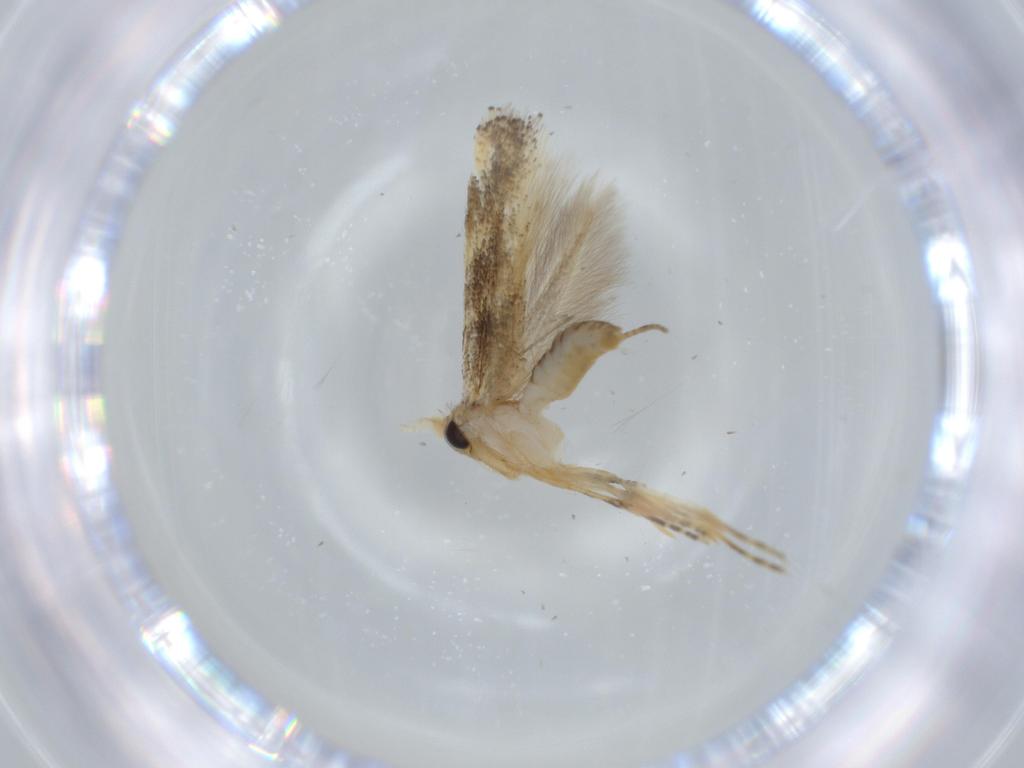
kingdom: Animalia
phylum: Arthropoda
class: Insecta
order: Lepidoptera
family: Bucculatricidae
